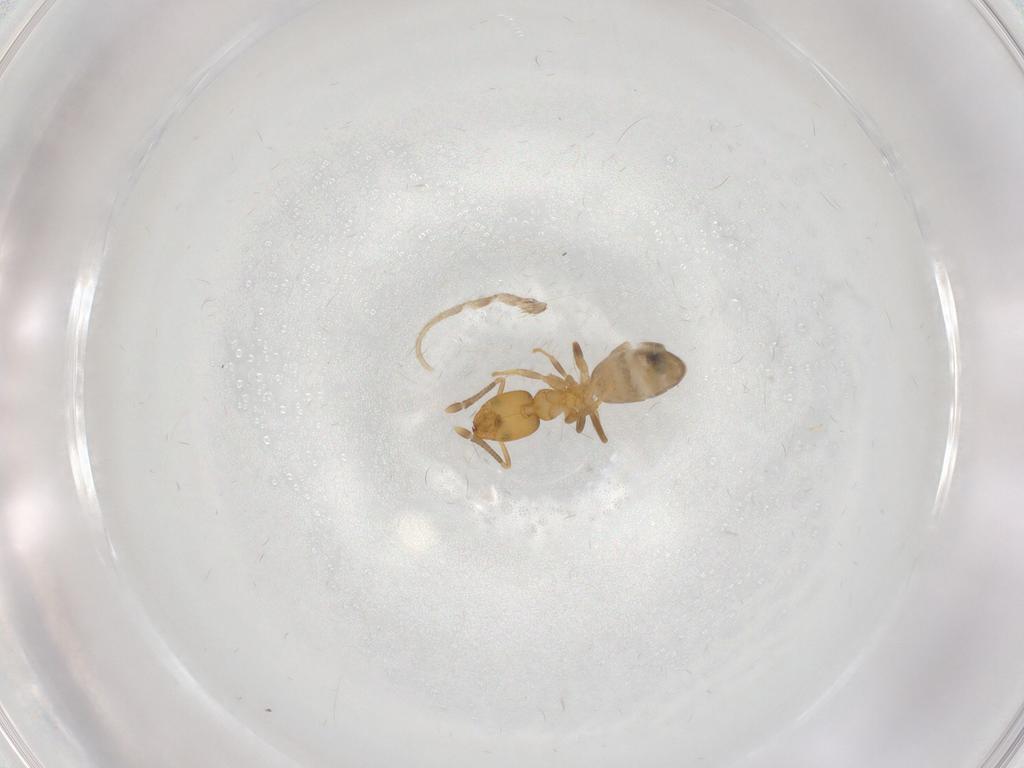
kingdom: Animalia
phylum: Arthropoda
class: Insecta
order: Hymenoptera
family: Formicidae
